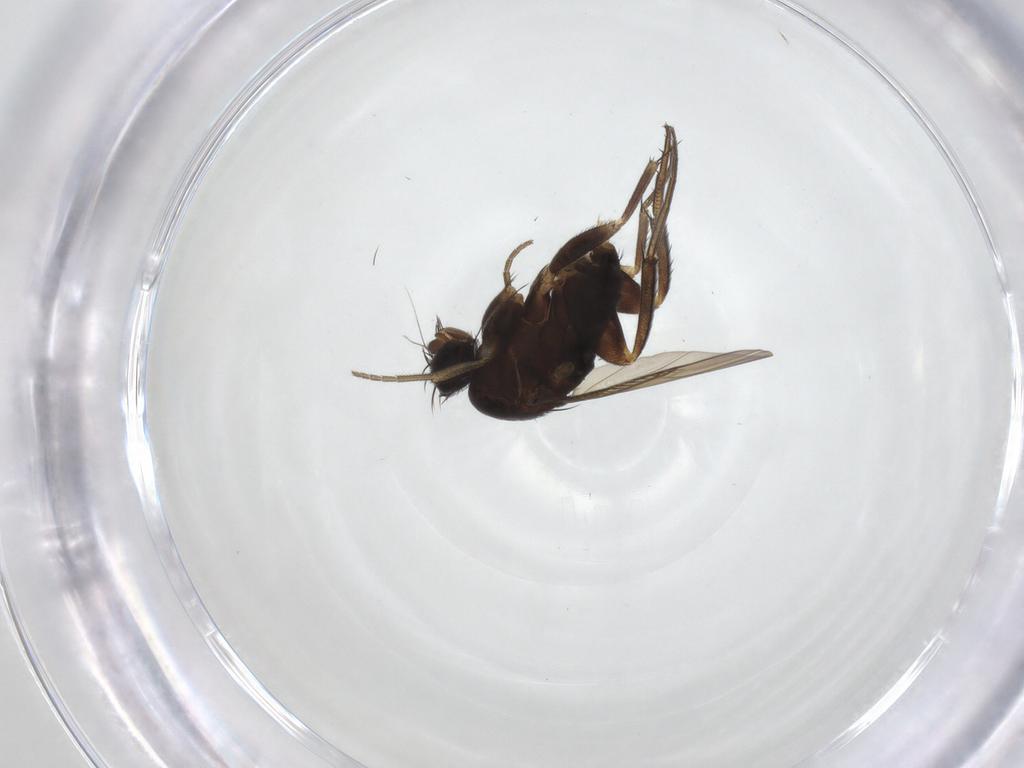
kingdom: Animalia
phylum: Arthropoda
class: Insecta
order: Diptera
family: Phoridae
